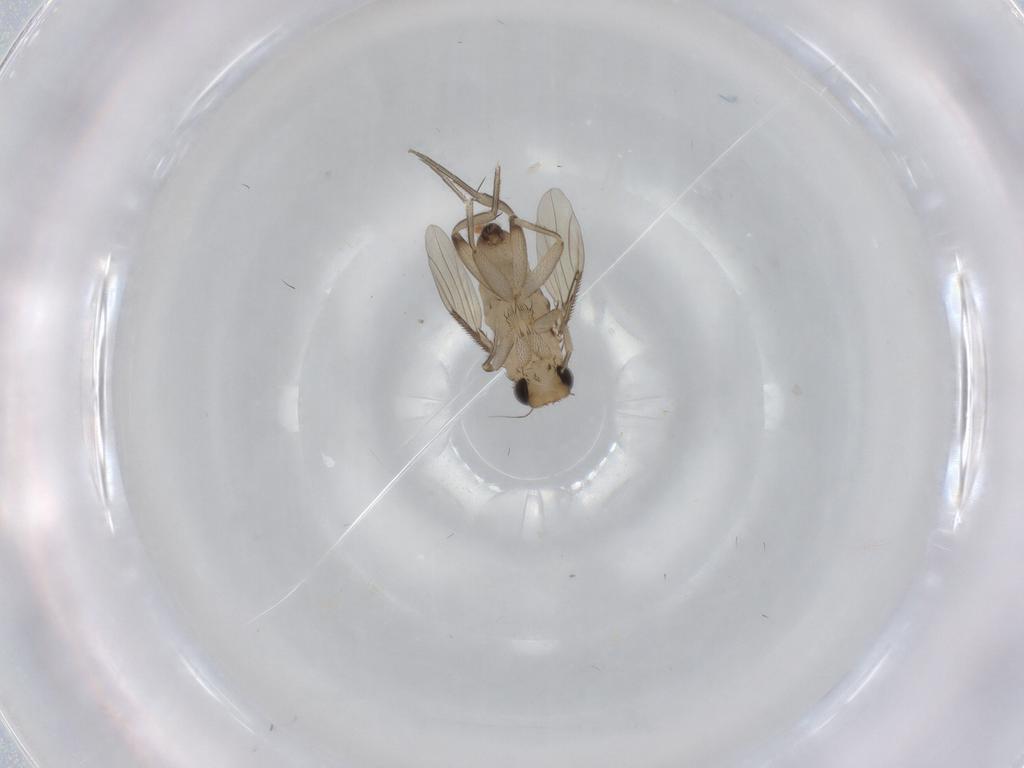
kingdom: Animalia
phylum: Arthropoda
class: Insecta
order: Diptera
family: Phoridae
